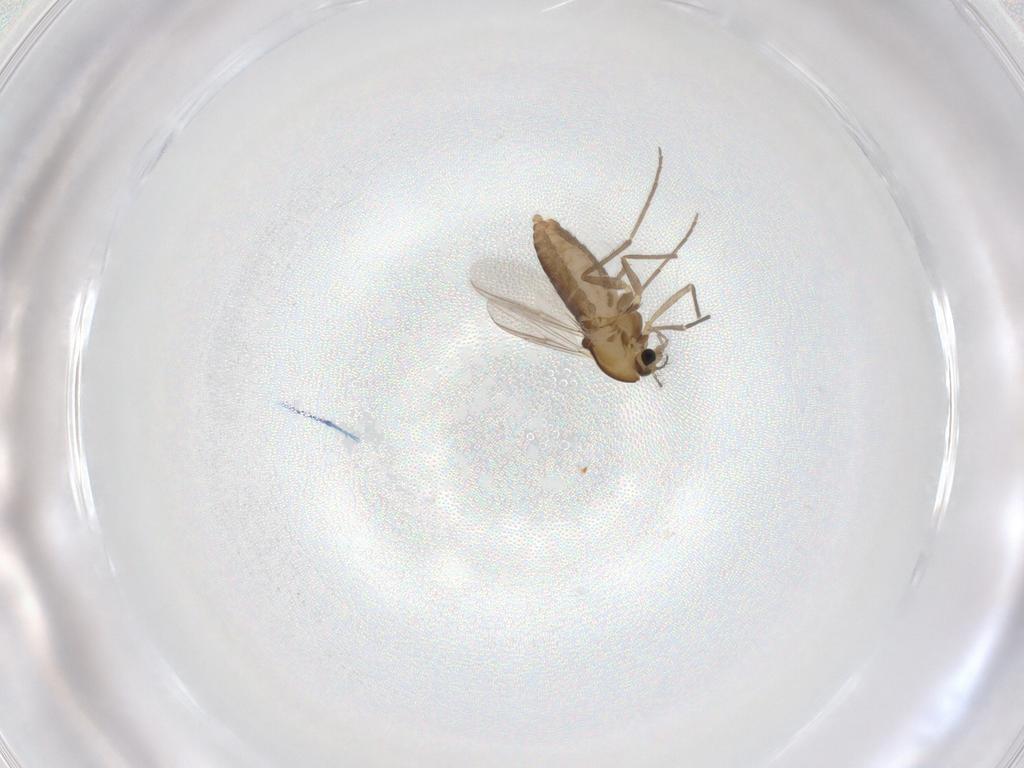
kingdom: Animalia
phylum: Arthropoda
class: Insecta
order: Diptera
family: Chironomidae
